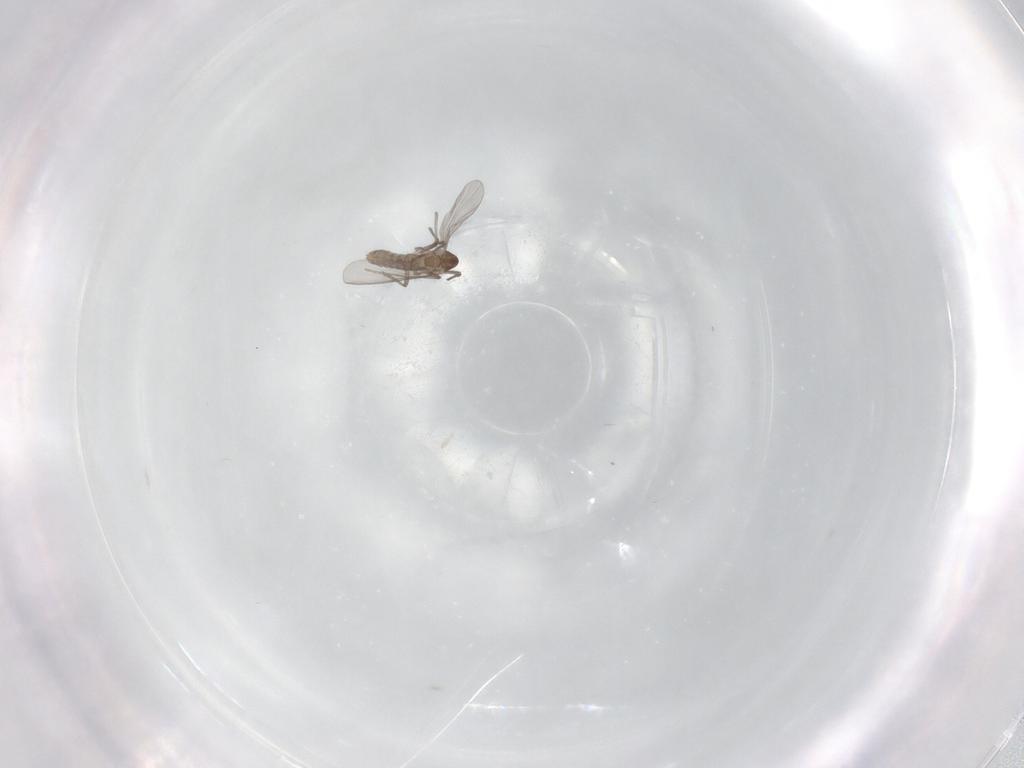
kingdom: Animalia
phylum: Arthropoda
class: Insecta
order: Diptera
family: Chironomidae
